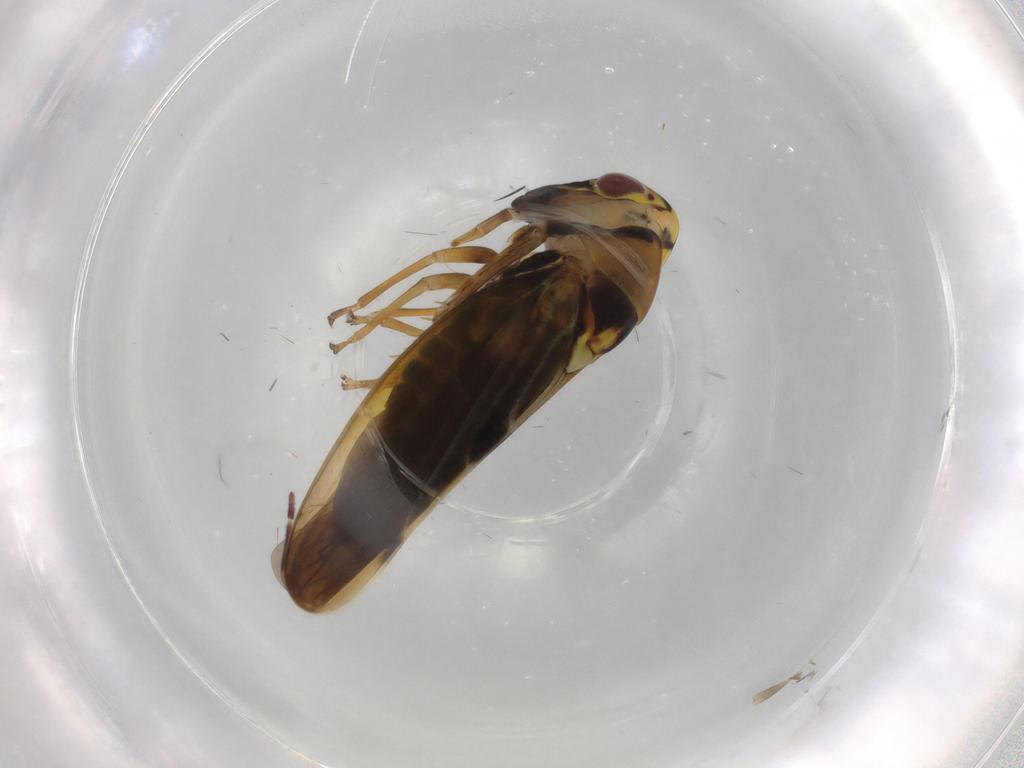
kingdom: Animalia
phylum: Arthropoda
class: Insecta
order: Hemiptera
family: Cicadellidae
